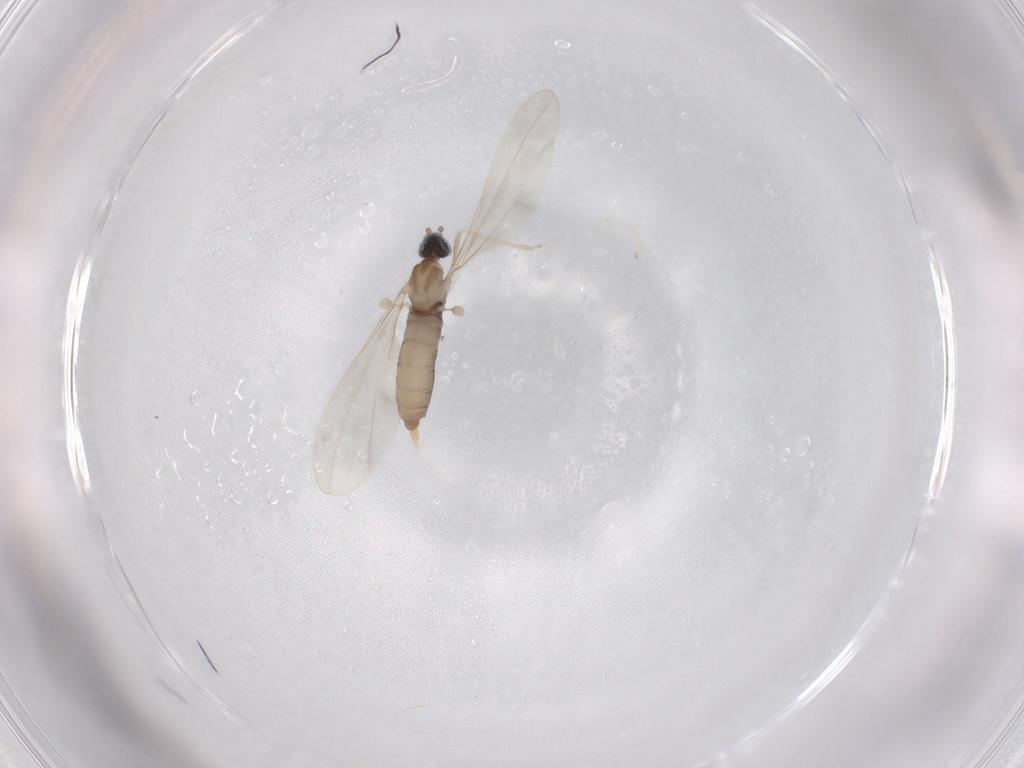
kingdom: Animalia
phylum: Arthropoda
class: Insecta
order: Diptera
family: Cecidomyiidae
